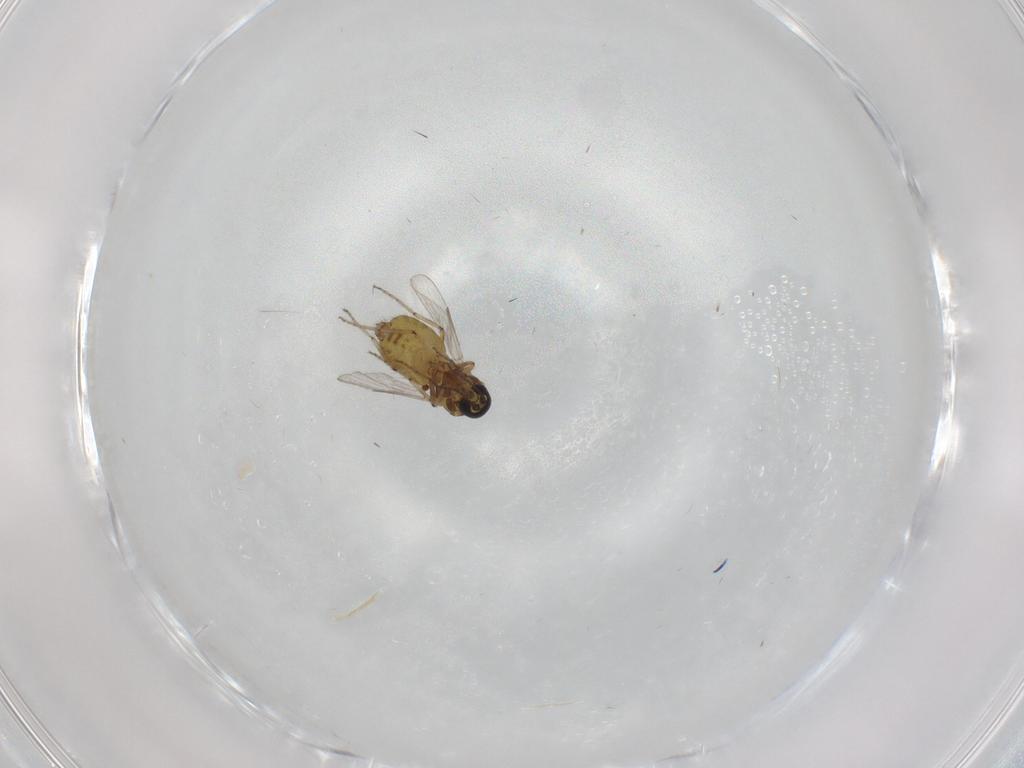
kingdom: Animalia
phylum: Arthropoda
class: Insecta
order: Diptera
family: Ceratopogonidae
